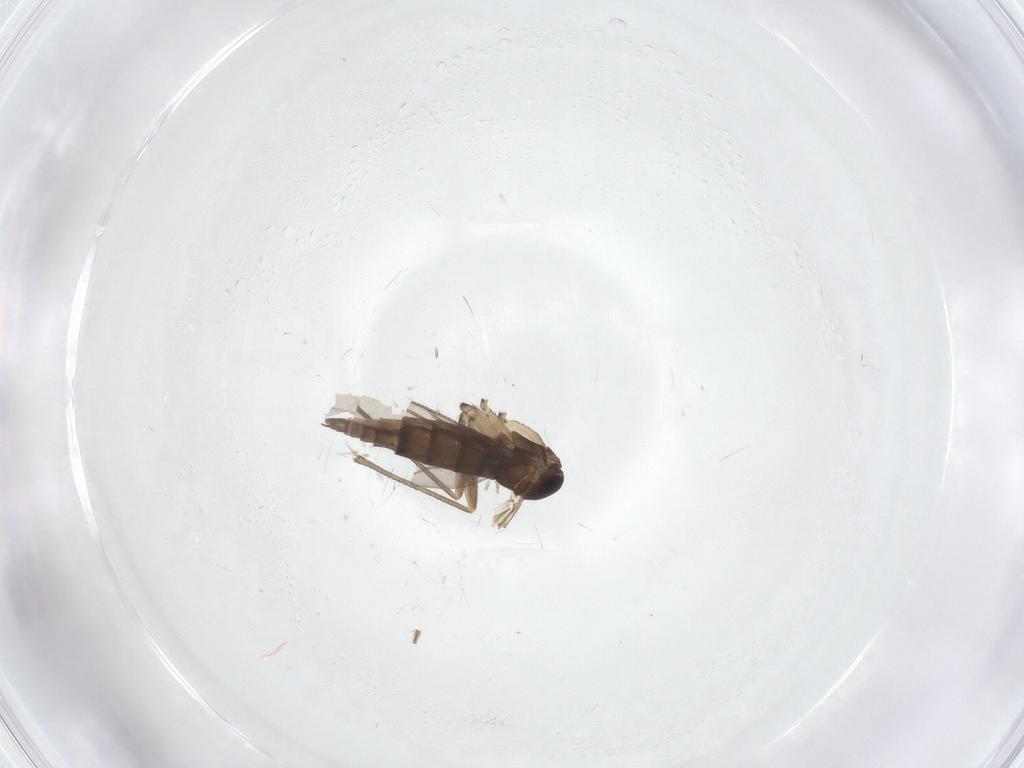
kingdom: Animalia
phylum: Arthropoda
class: Insecta
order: Diptera
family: Sciaridae
